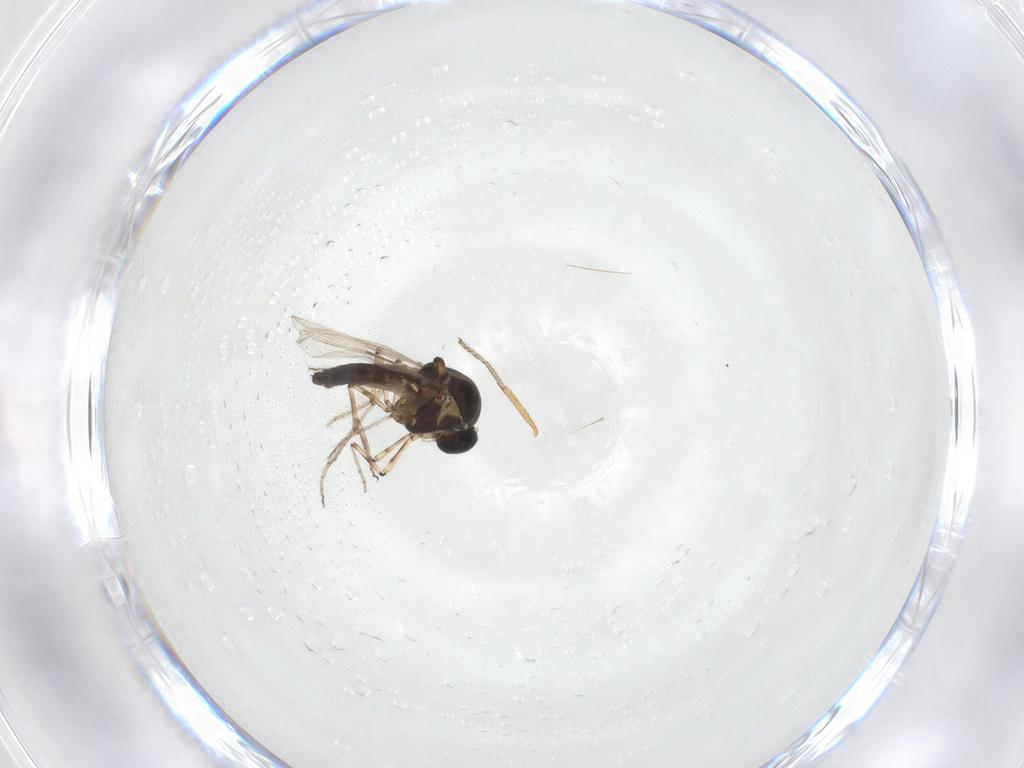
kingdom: Animalia
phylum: Arthropoda
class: Insecta
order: Diptera
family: Ceratopogonidae
